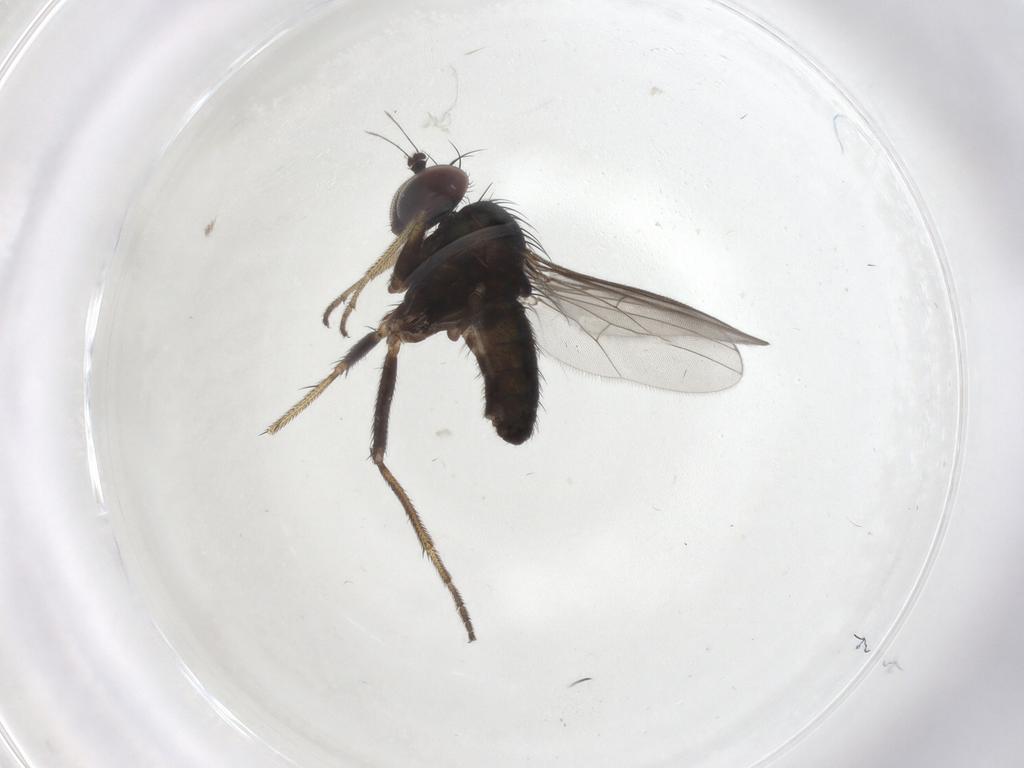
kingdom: Animalia
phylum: Arthropoda
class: Insecta
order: Diptera
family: Dolichopodidae
